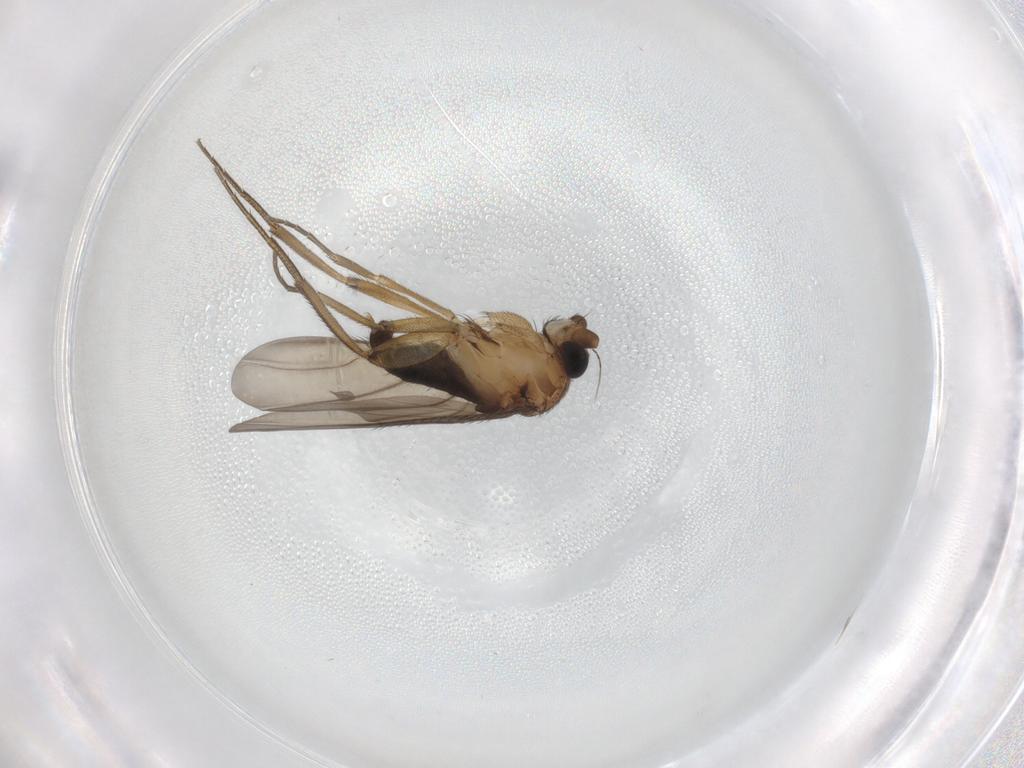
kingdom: Animalia
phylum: Arthropoda
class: Insecta
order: Diptera
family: Sciaridae
